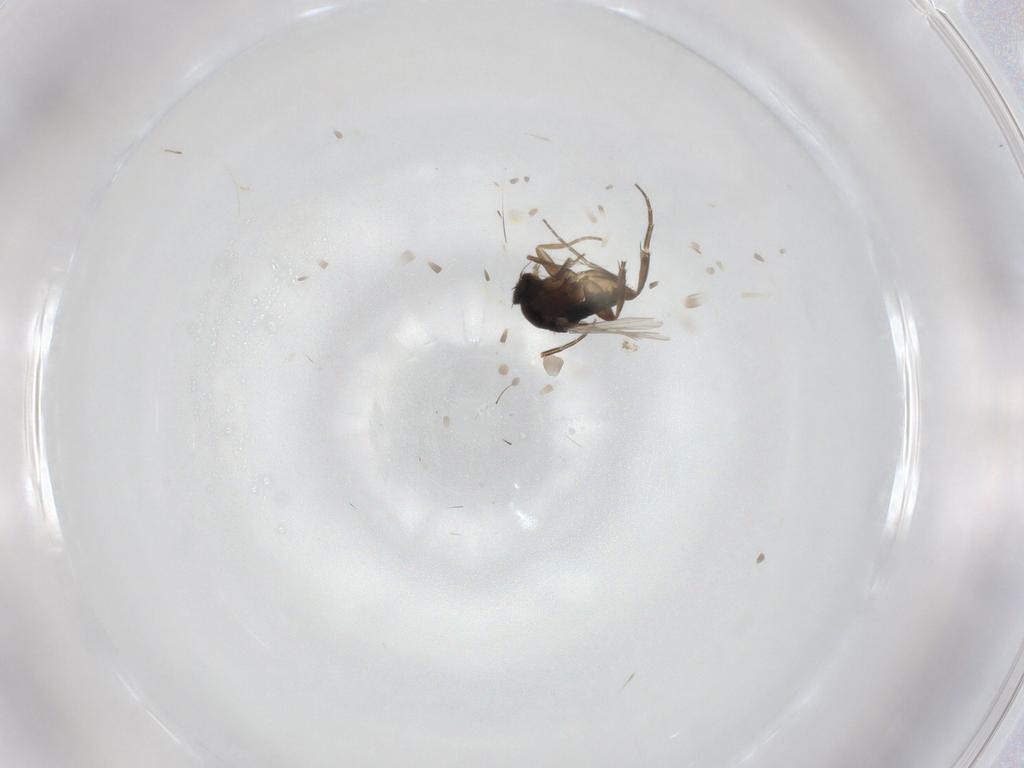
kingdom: Animalia
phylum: Arthropoda
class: Insecta
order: Diptera
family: Phoridae
